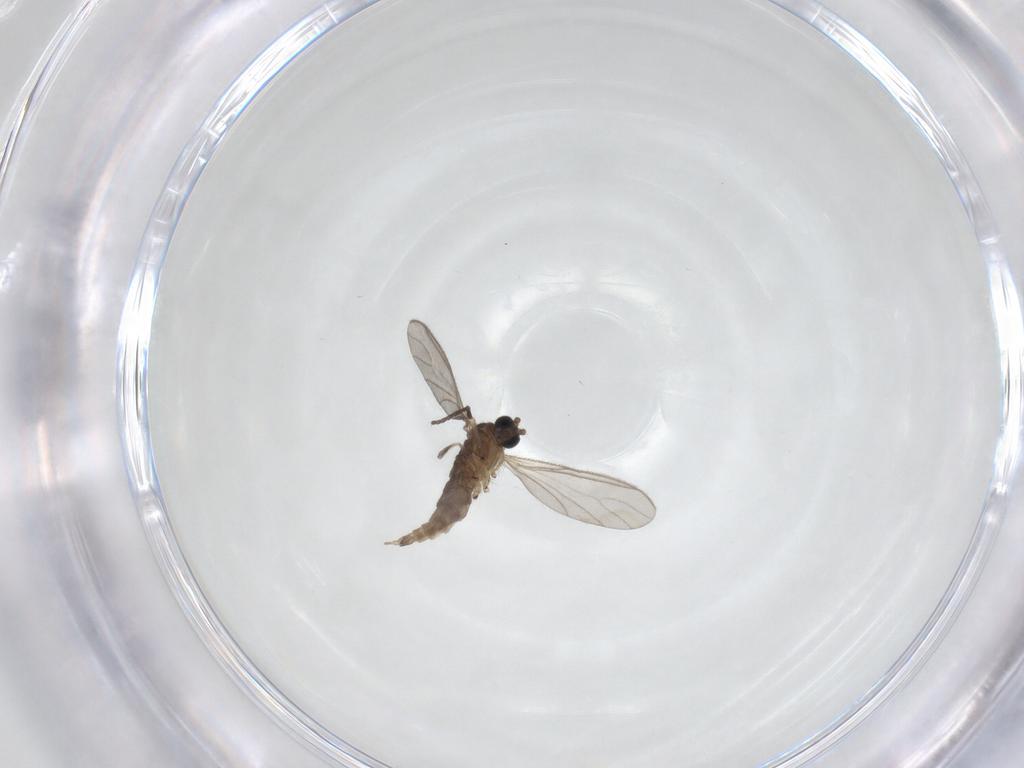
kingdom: Animalia
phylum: Arthropoda
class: Insecta
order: Diptera
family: Sciaridae
